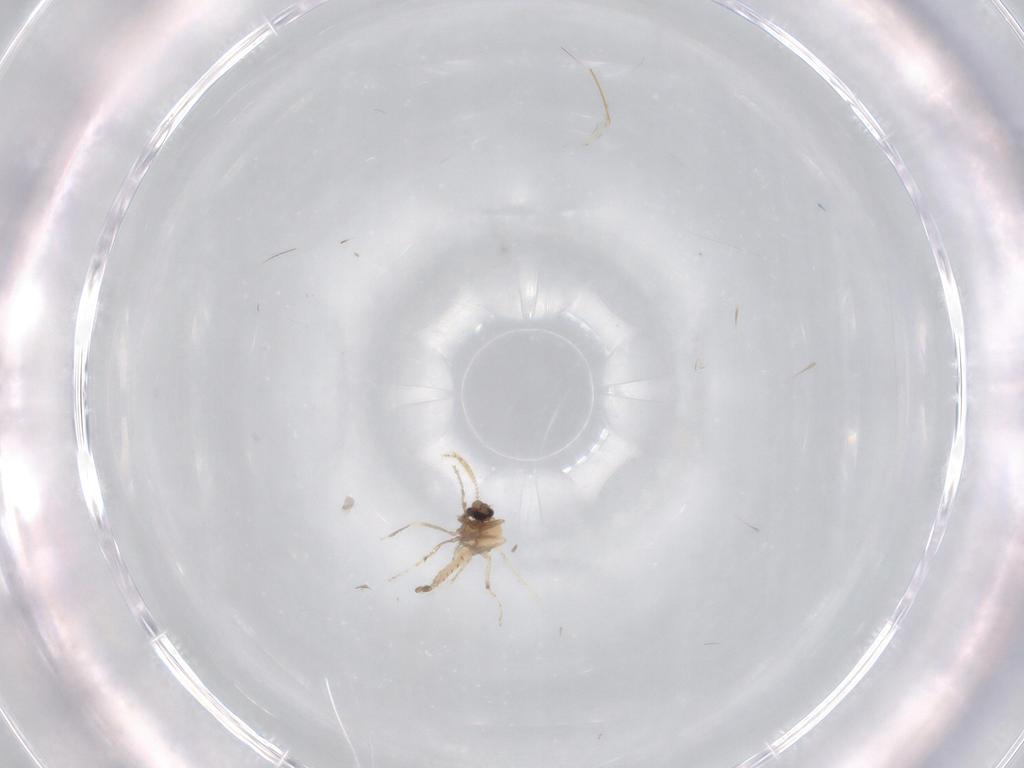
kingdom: Animalia
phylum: Arthropoda
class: Insecta
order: Diptera
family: Ceratopogonidae
